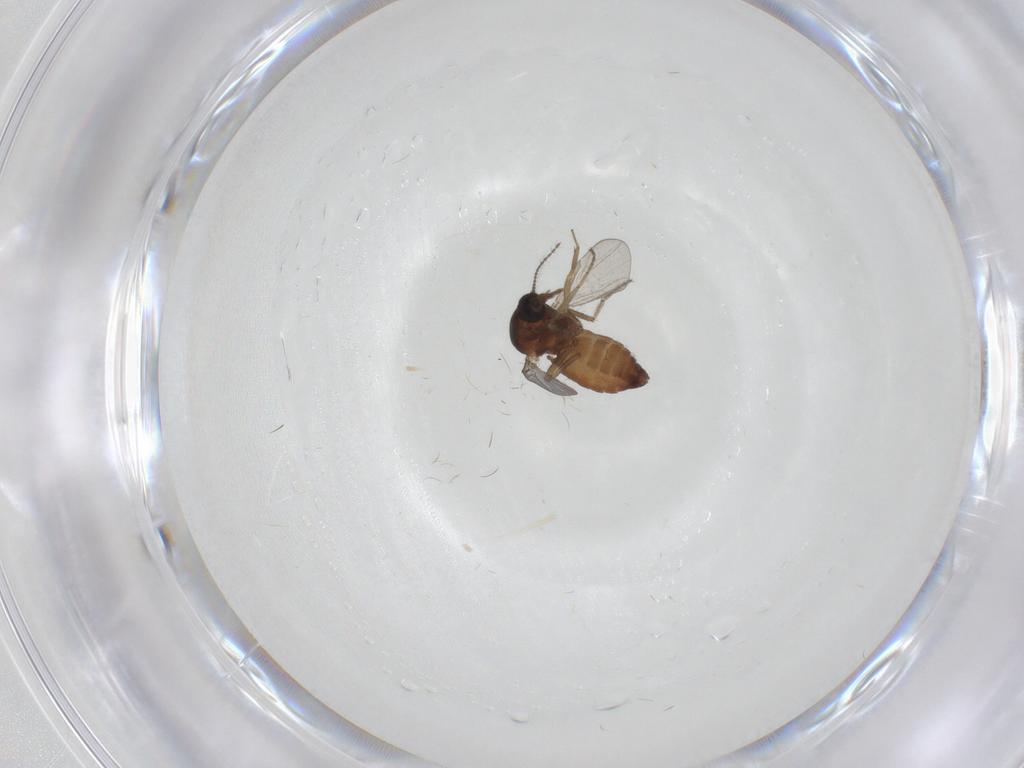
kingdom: Animalia
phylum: Arthropoda
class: Insecta
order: Diptera
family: Ceratopogonidae
